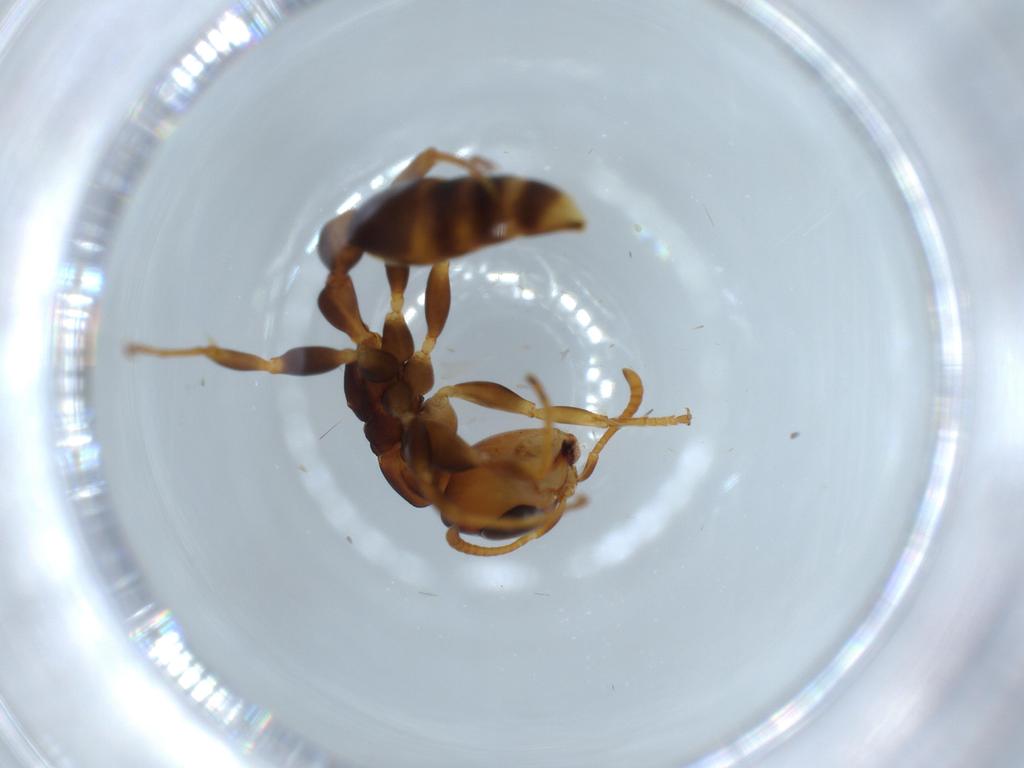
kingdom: Animalia
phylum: Arthropoda
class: Insecta
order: Hymenoptera
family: Formicidae
